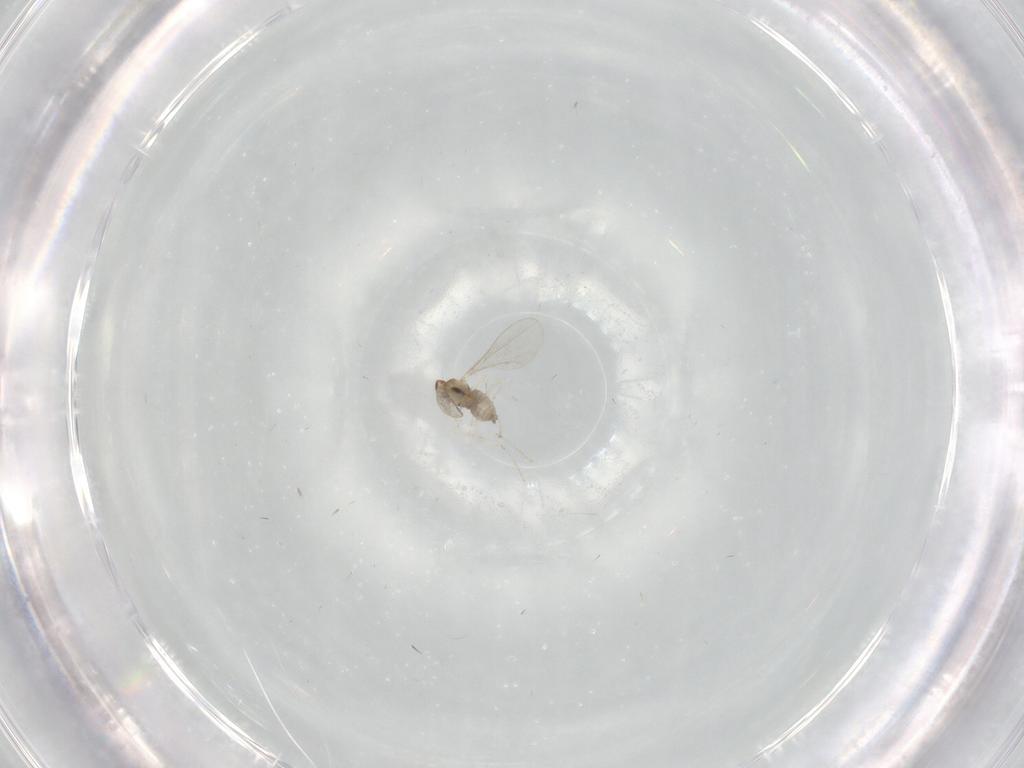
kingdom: Animalia
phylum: Arthropoda
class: Insecta
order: Diptera
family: Cecidomyiidae
